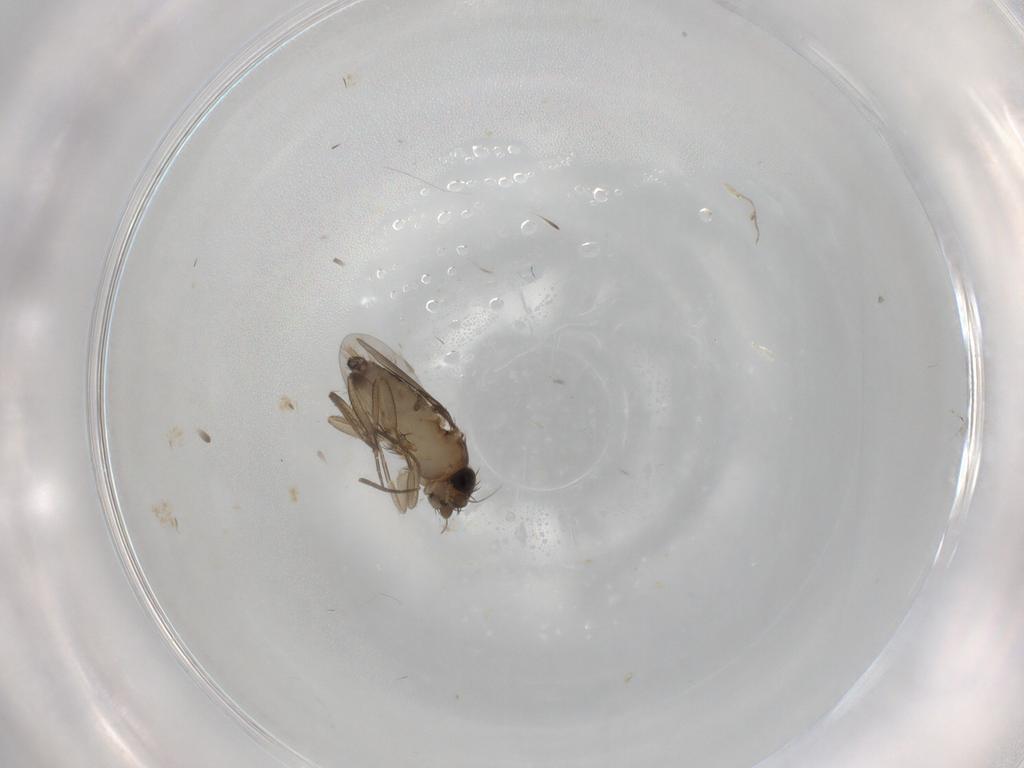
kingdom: Animalia
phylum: Arthropoda
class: Insecta
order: Diptera
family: Phoridae
